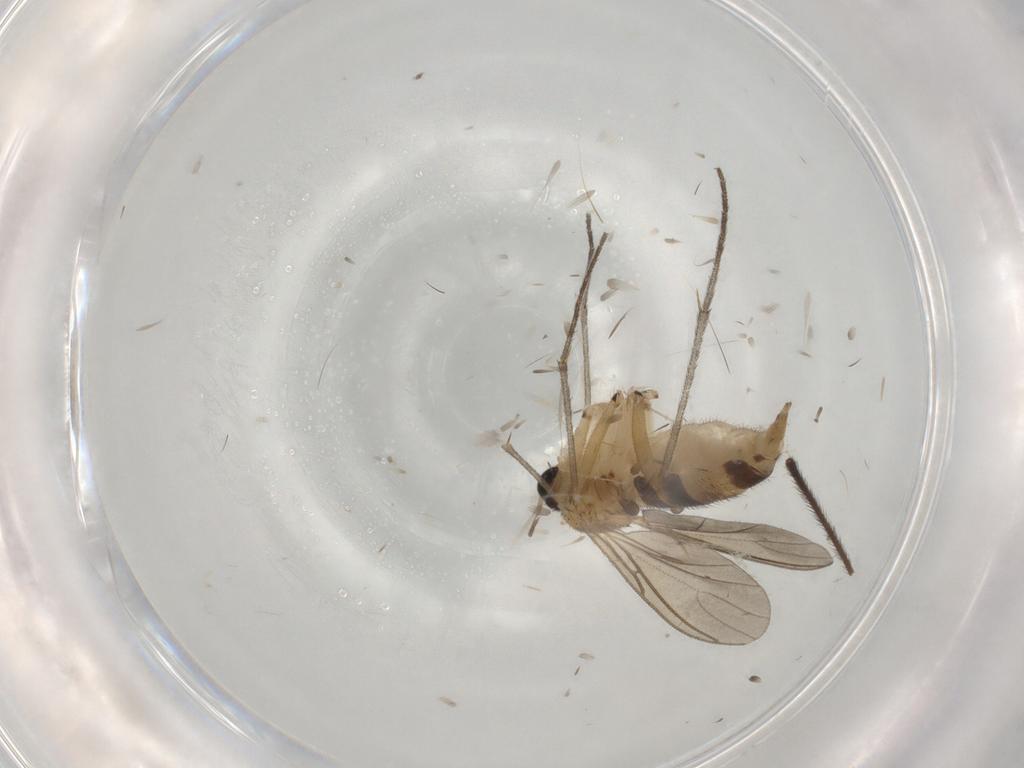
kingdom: Animalia
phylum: Arthropoda
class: Insecta
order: Diptera
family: Limoniidae
